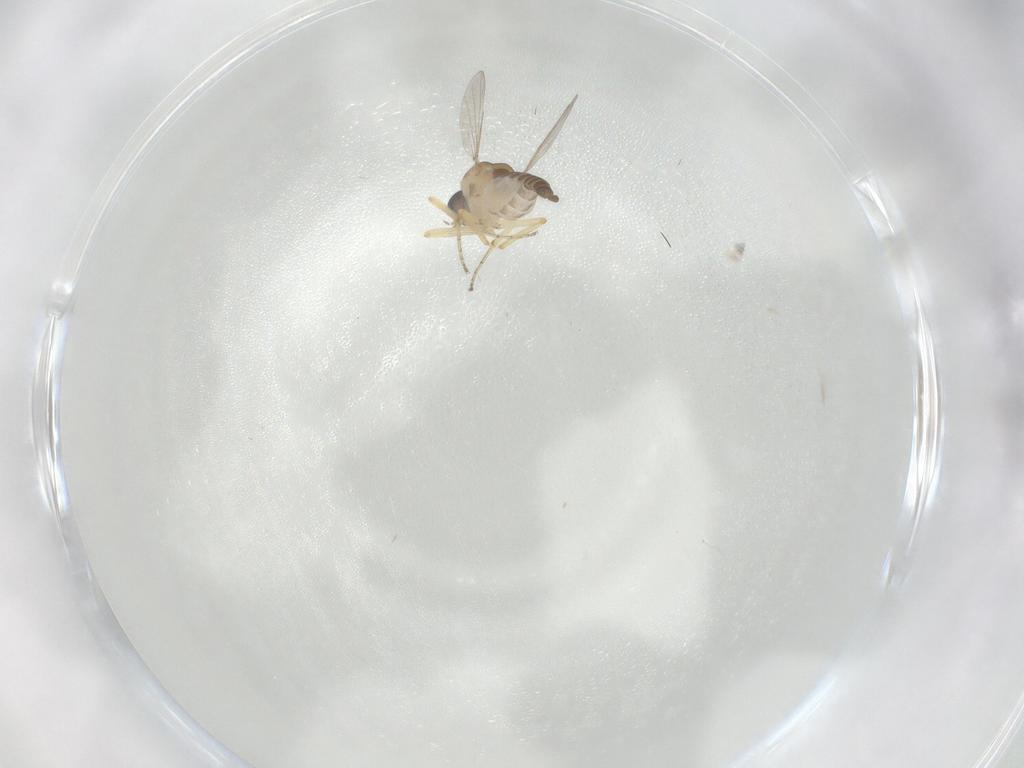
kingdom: Animalia
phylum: Arthropoda
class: Insecta
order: Diptera
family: Ceratopogonidae
